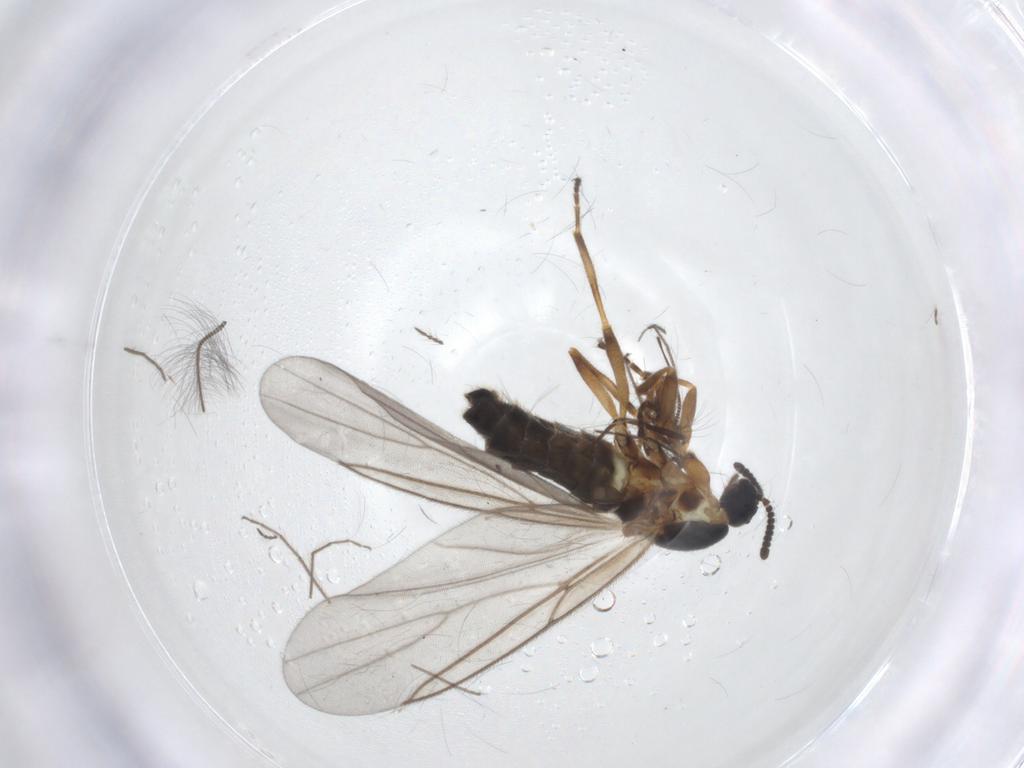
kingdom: Animalia
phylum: Arthropoda
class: Insecta
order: Diptera
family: Scatopsidae
